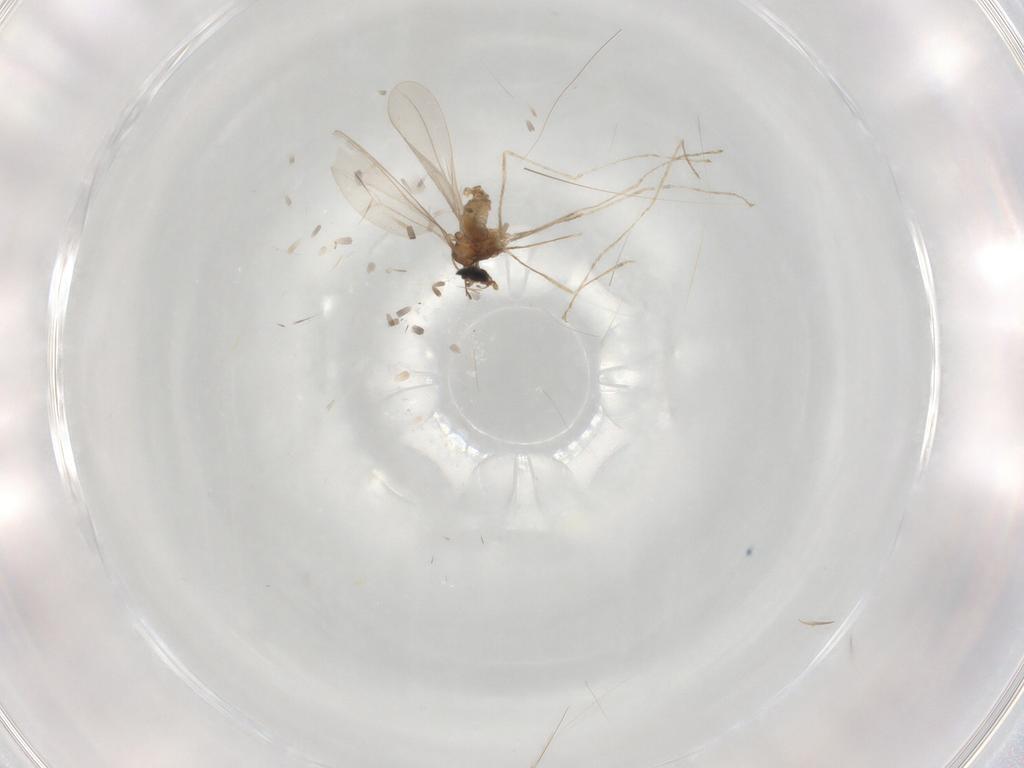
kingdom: Animalia
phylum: Arthropoda
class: Insecta
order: Diptera
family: Cecidomyiidae
